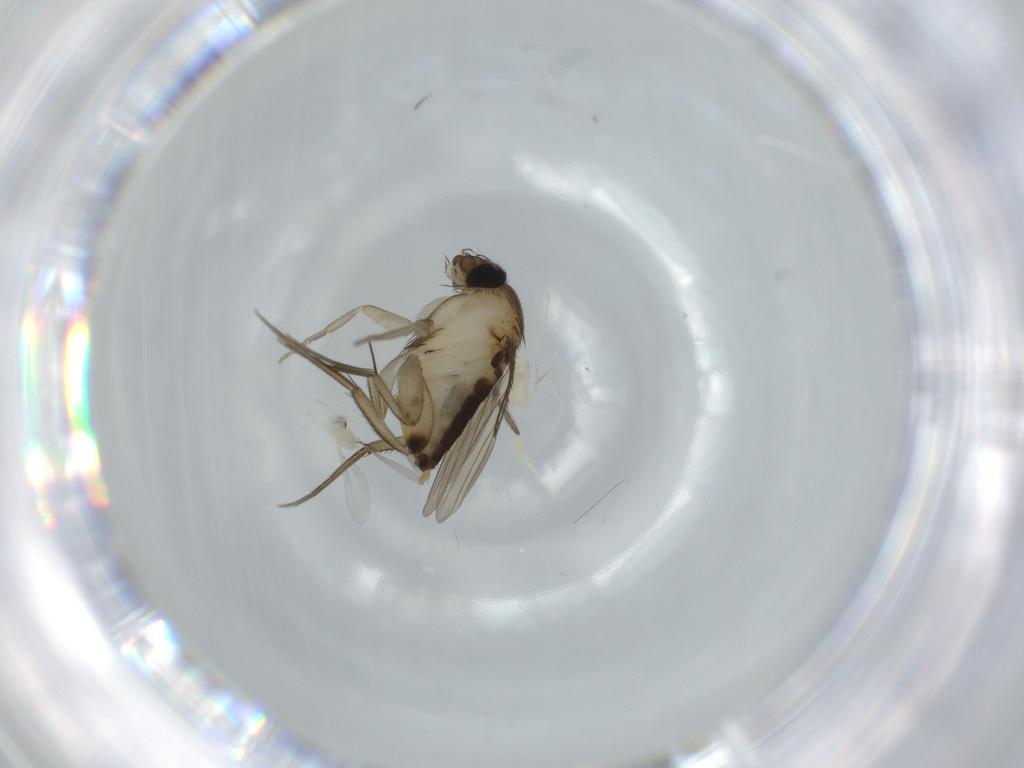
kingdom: Animalia
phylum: Arthropoda
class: Insecta
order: Diptera
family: Phoridae
